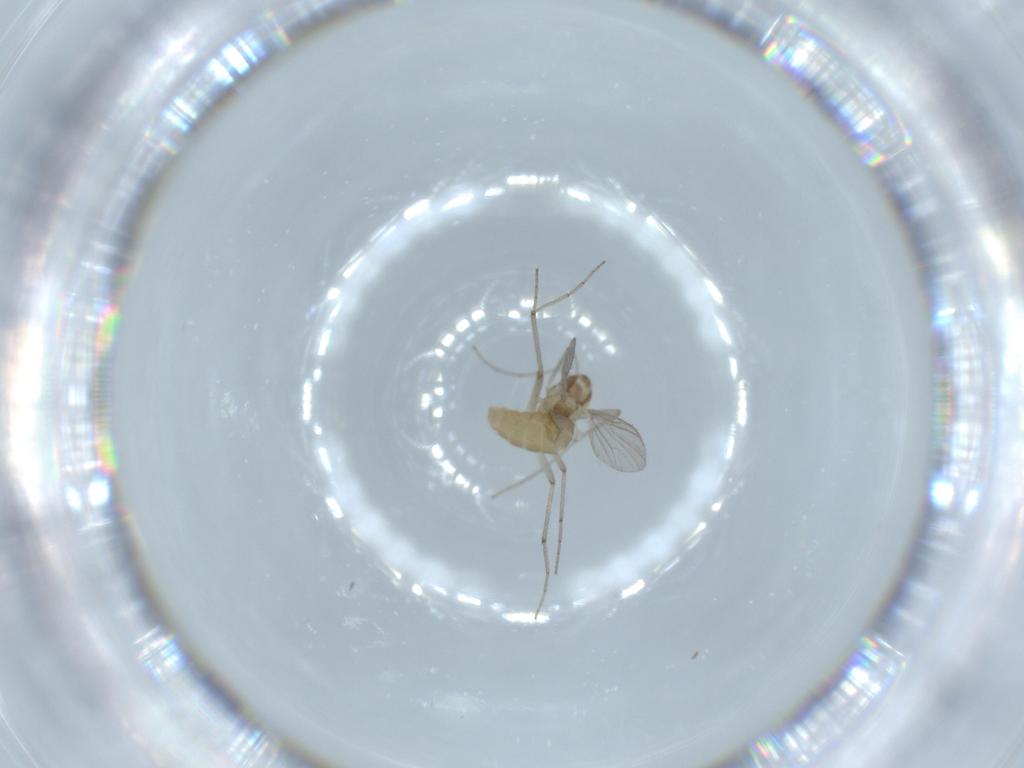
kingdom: Animalia
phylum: Arthropoda
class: Insecta
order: Diptera
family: Chironomidae
